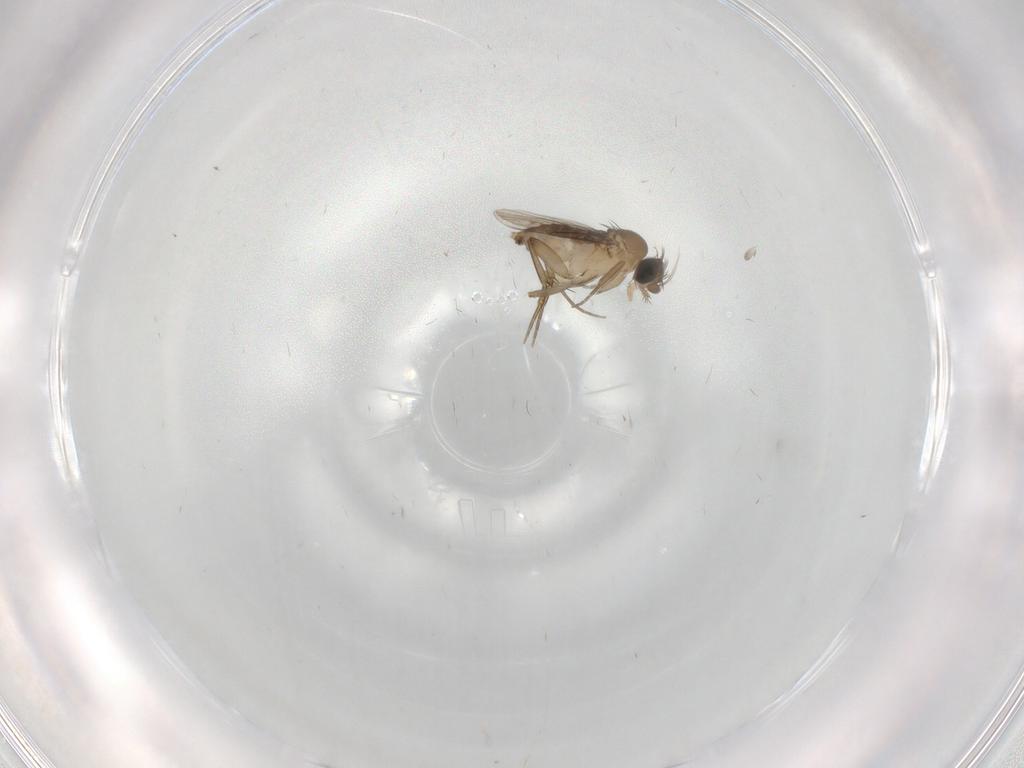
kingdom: Animalia
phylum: Arthropoda
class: Insecta
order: Diptera
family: Phoridae
